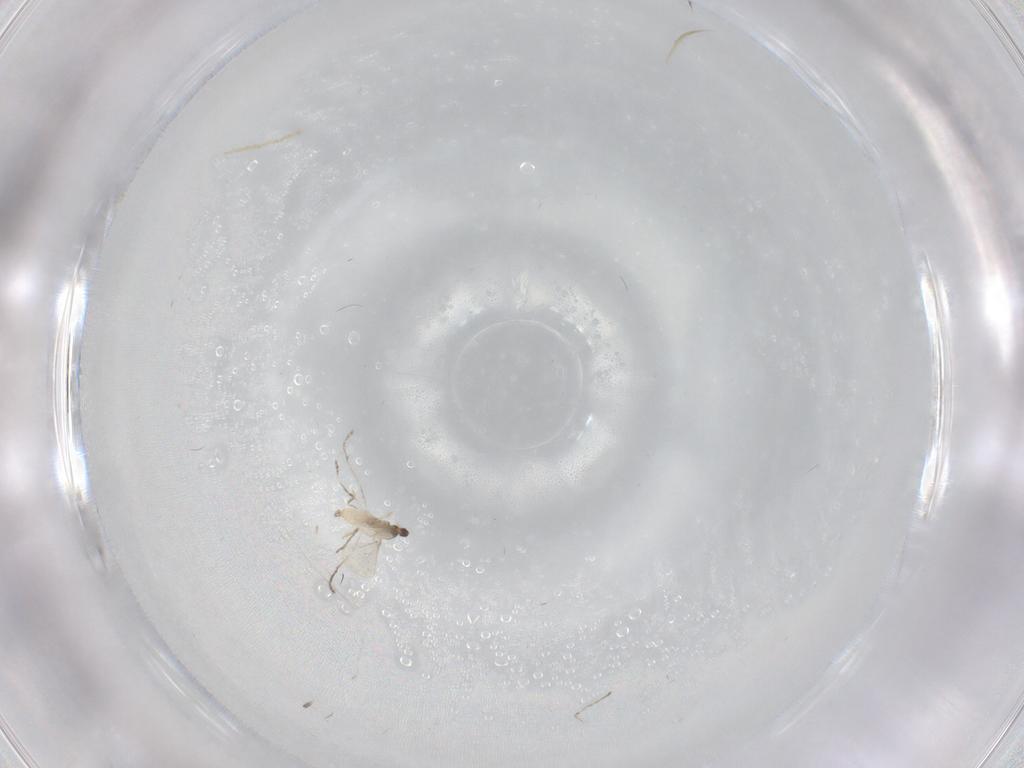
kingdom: Animalia
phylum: Arthropoda
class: Insecta
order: Diptera
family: Cecidomyiidae
